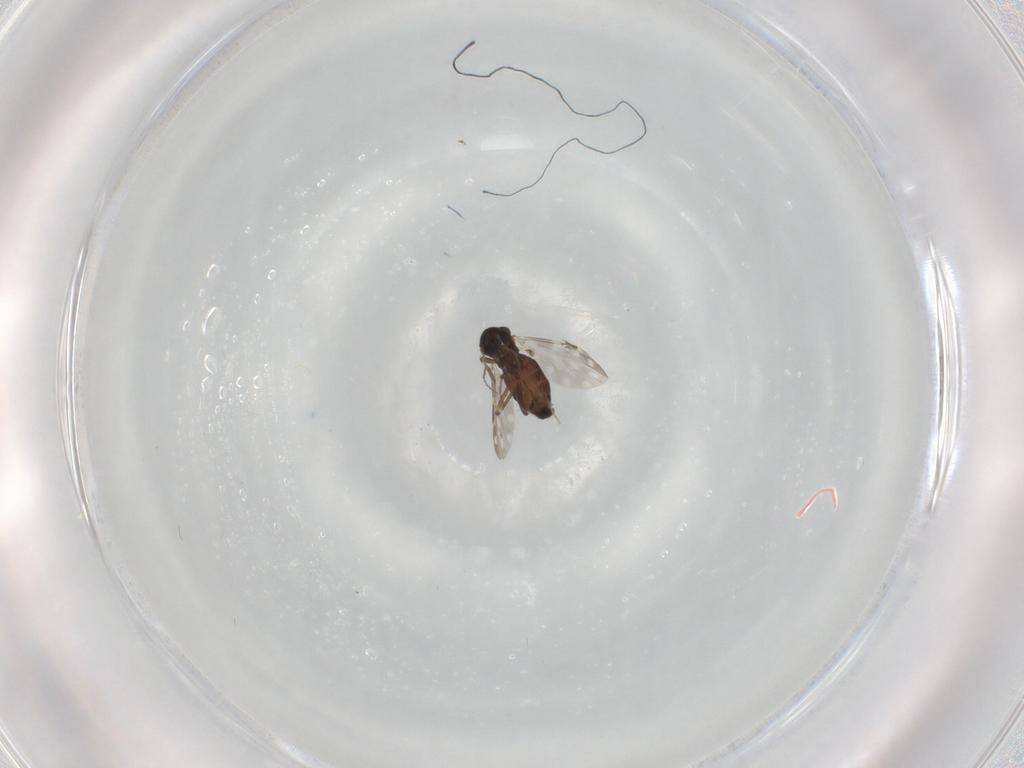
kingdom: Animalia
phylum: Arthropoda
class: Insecta
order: Diptera
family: Ceratopogonidae
